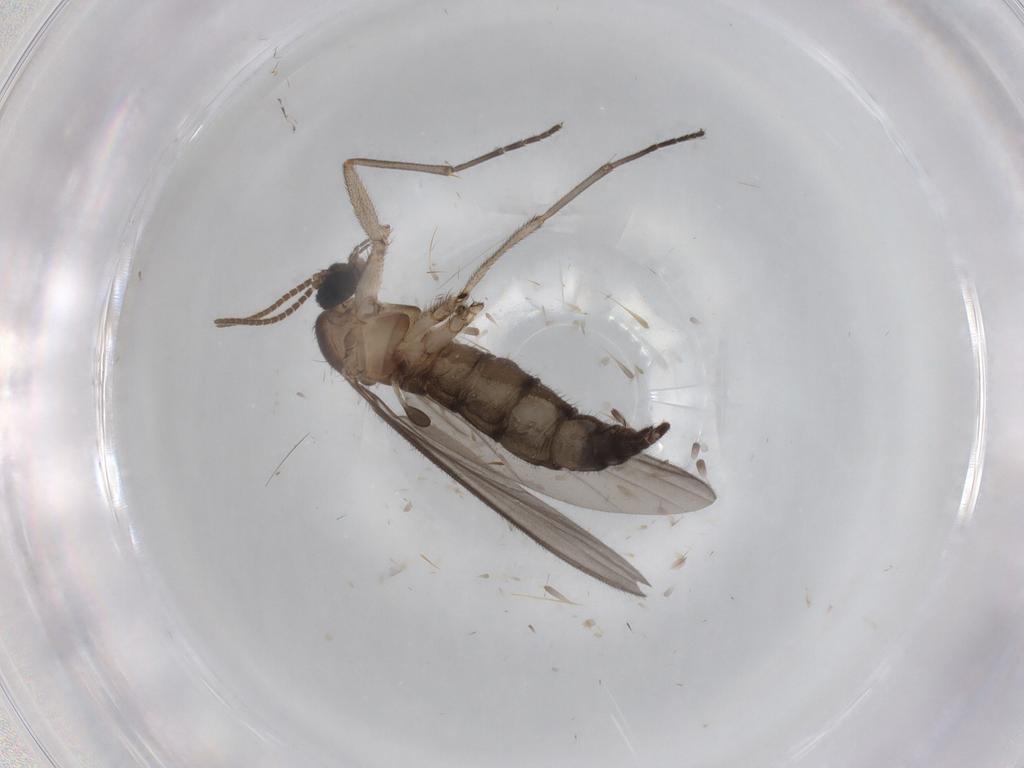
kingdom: Animalia
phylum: Arthropoda
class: Insecta
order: Diptera
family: Cecidomyiidae
